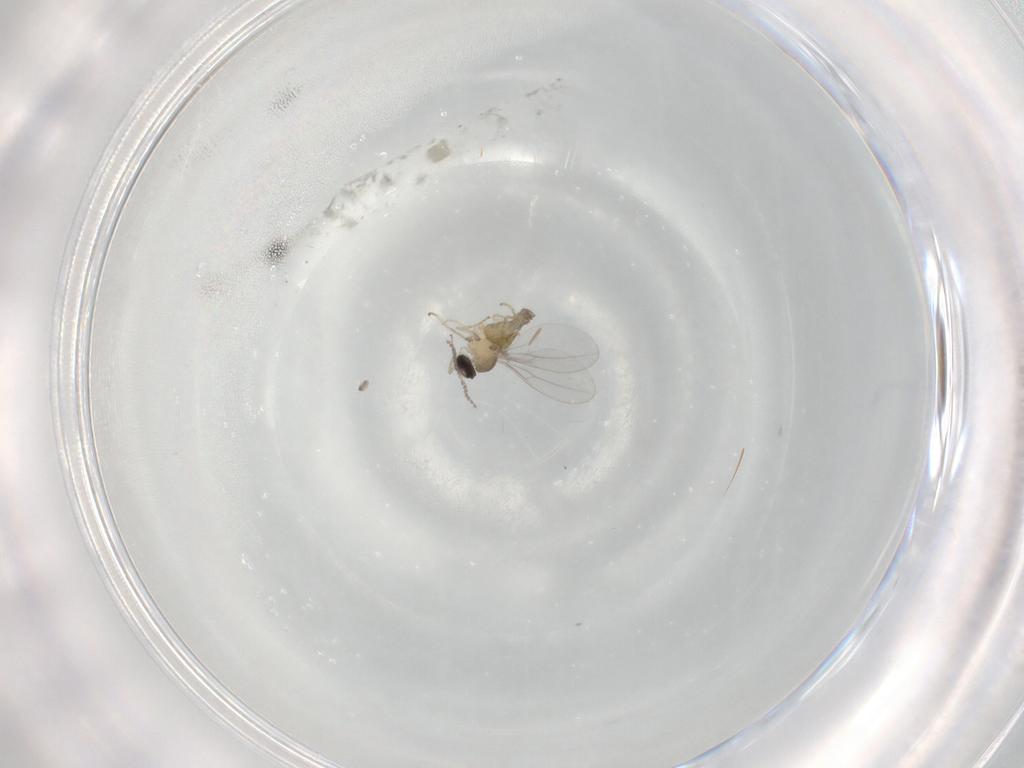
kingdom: Animalia
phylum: Arthropoda
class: Insecta
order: Diptera
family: Cecidomyiidae
